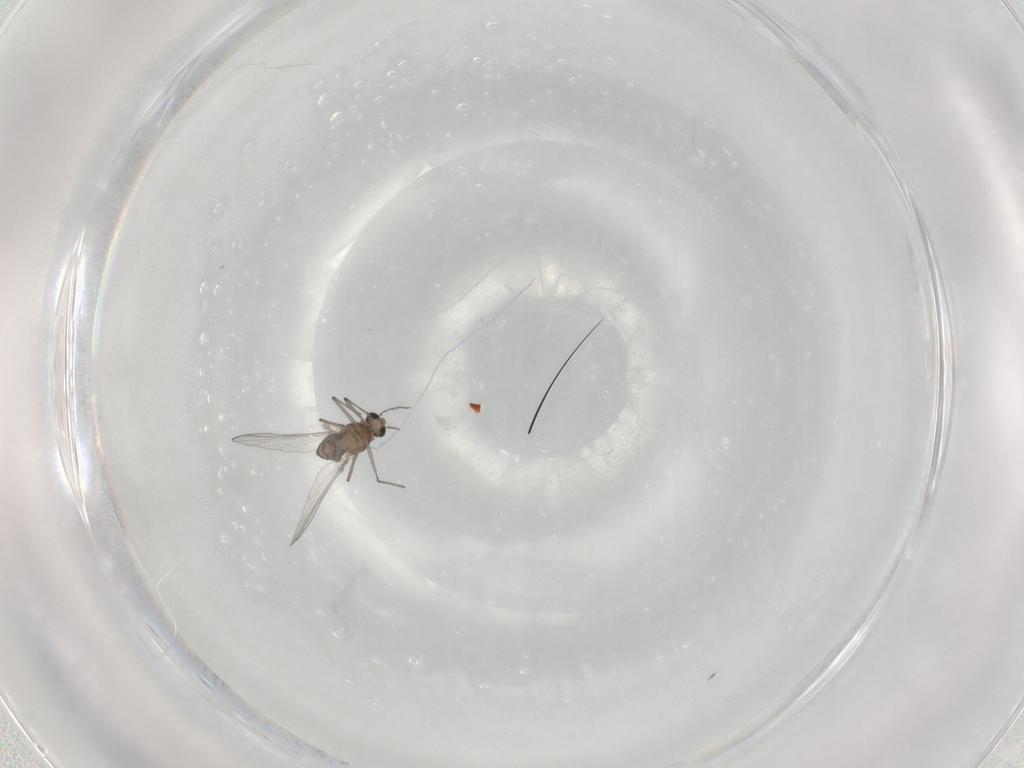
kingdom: Animalia
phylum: Arthropoda
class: Insecta
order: Diptera
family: Chironomidae
